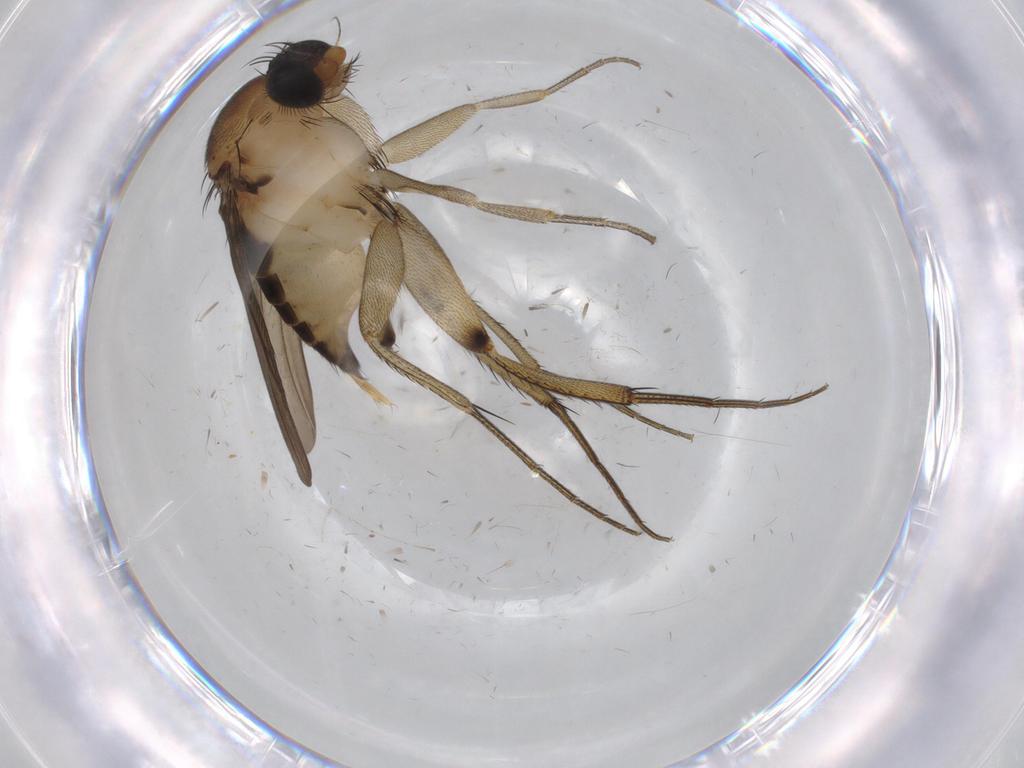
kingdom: Animalia
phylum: Arthropoda
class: Insecta
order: Diptera
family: Phoridae
